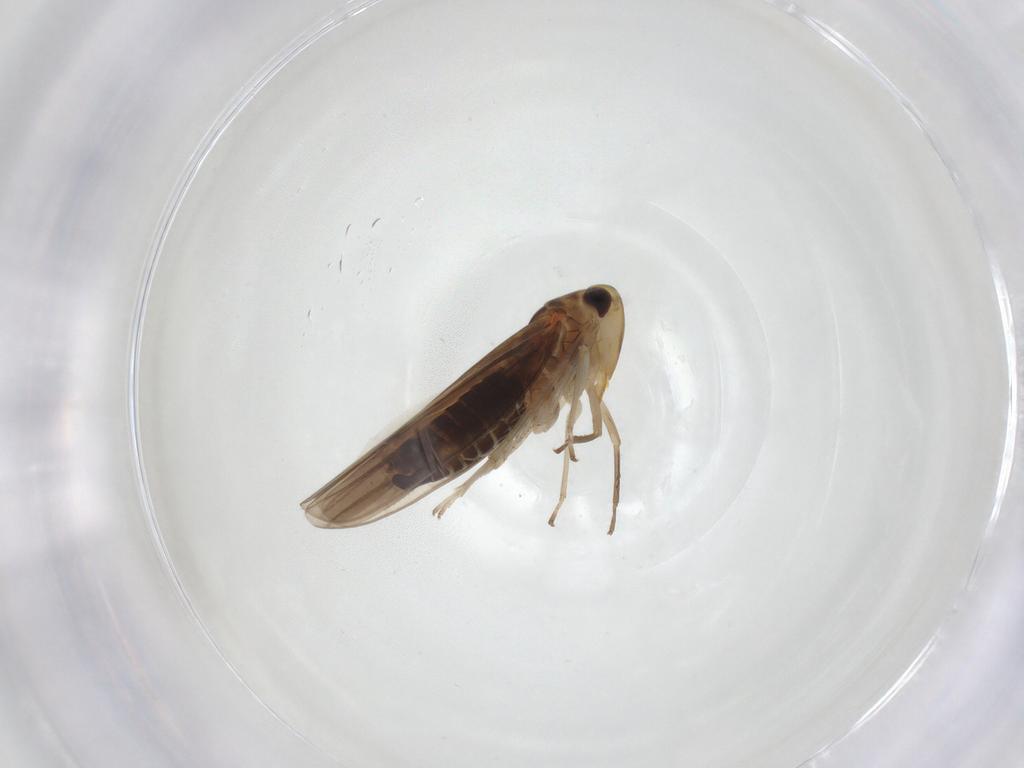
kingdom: Animalia
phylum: Arthropoda
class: Insecta
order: Hemiptera
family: Cicadellidae
